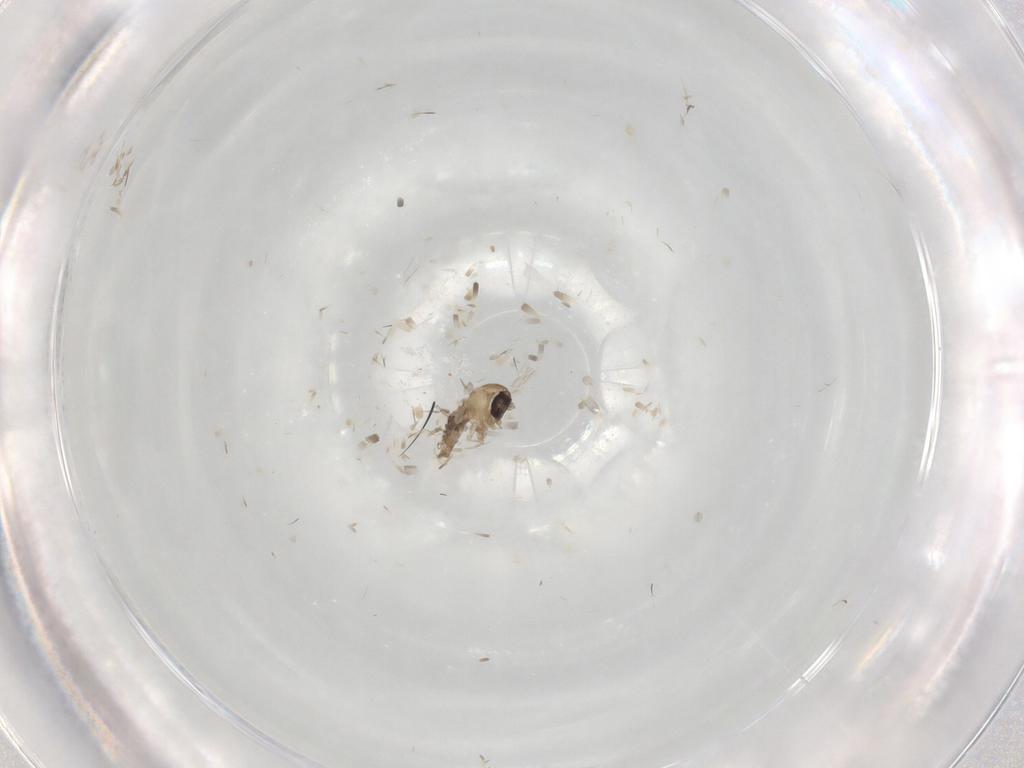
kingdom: Animalia
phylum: Arthropoda
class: Insecta
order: Diptera
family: Psychodidae
